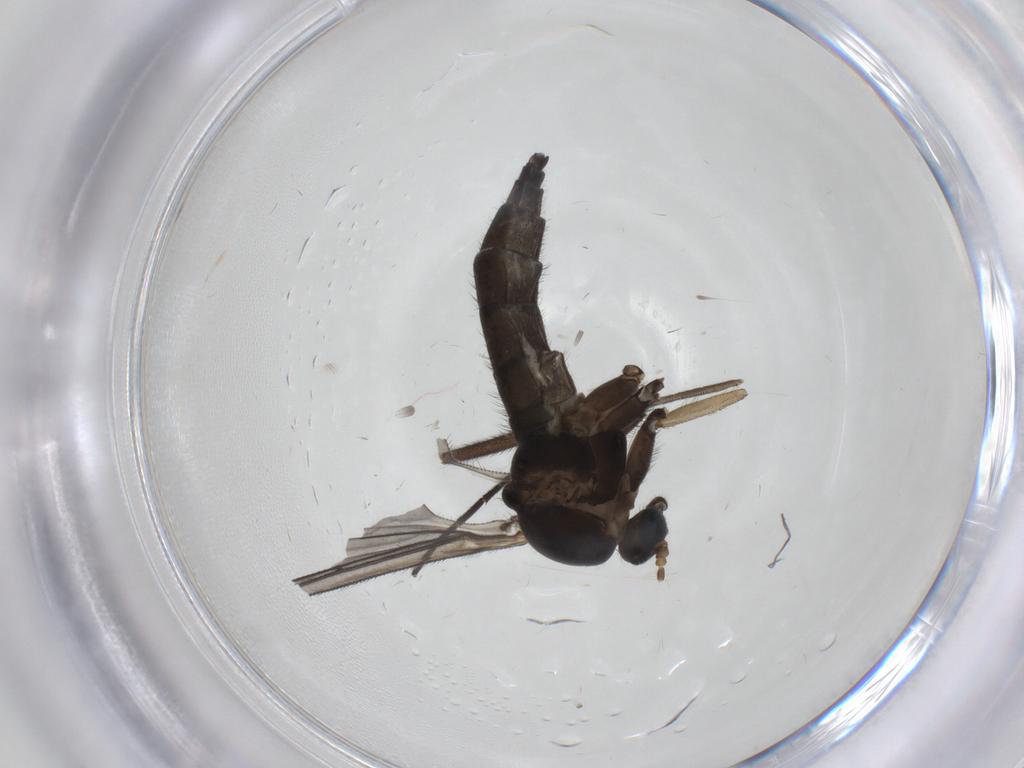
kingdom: Animalia
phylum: Arthropoda
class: Insecta
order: Diptera
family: Sciaridae
